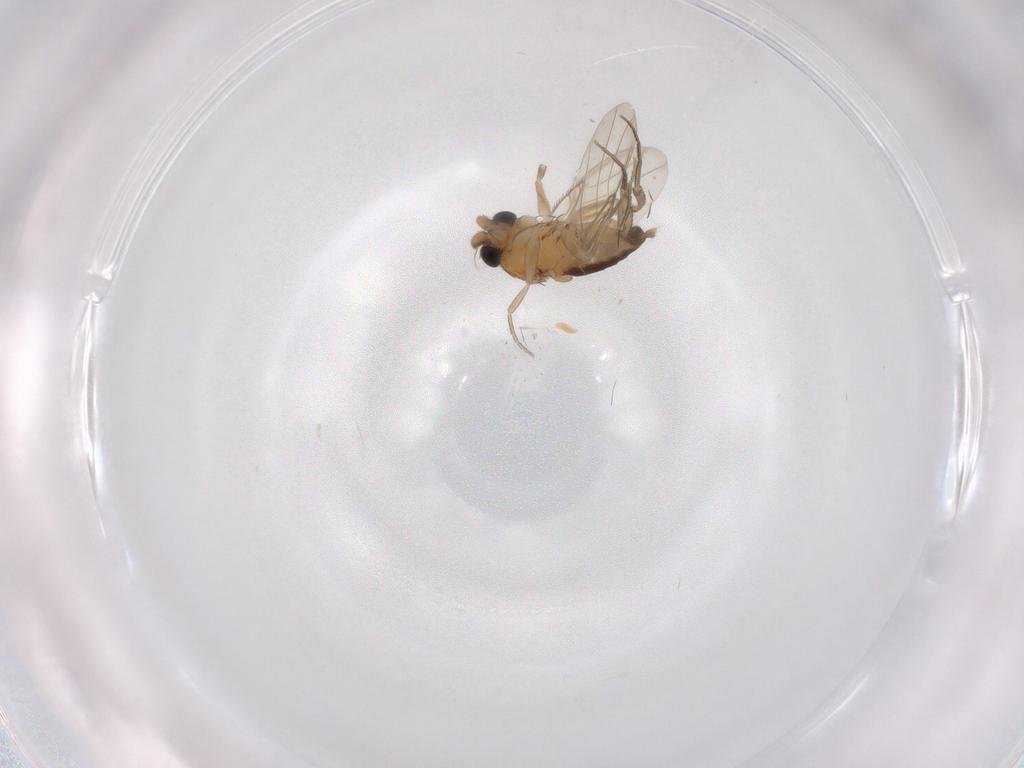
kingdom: Animalia
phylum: Arthropoda
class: Insecta
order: Diptera
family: Phoridae
